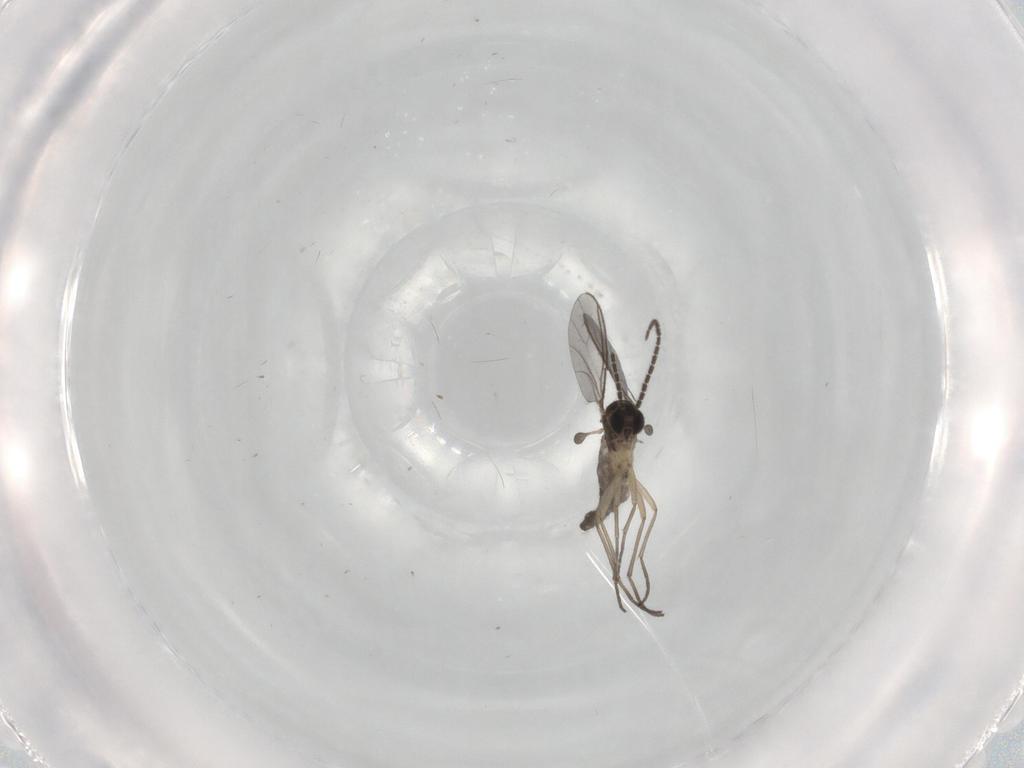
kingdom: Animalia
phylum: Arthropoda
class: Insecta
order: Diptera
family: Sciaridae
